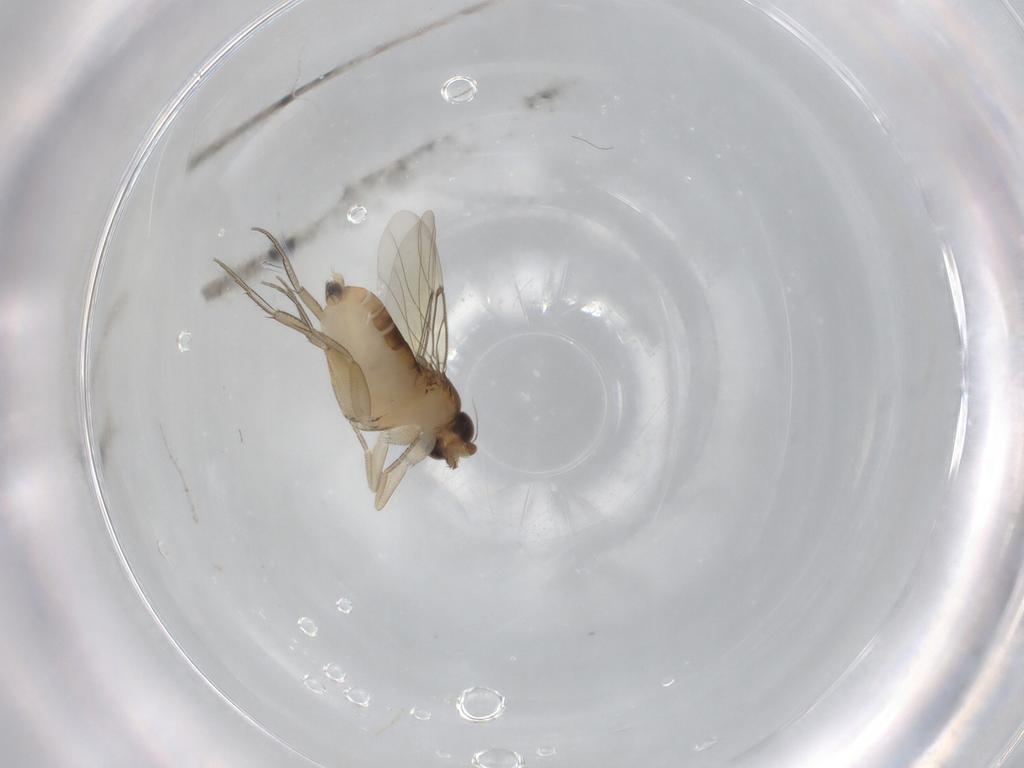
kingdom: Animalia
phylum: Arthropoda
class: Insecta
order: Diptera
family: Phoridae
